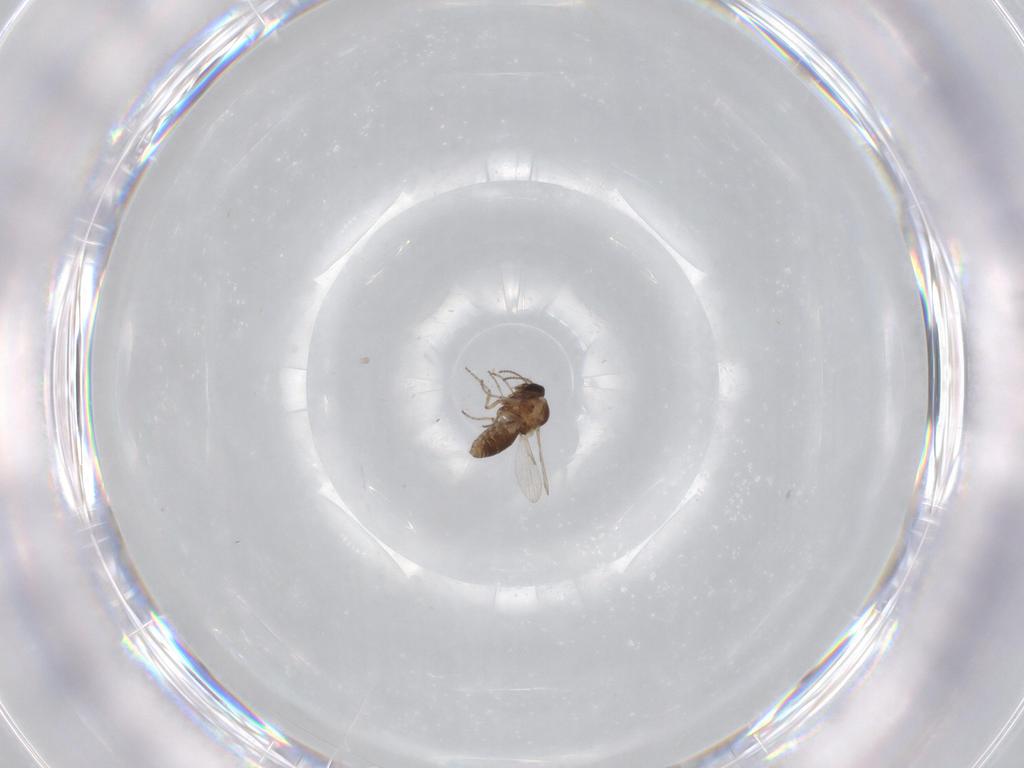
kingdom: Animalia
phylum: Arthropoda
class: Insecta
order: Diptera
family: Ceratopogonidae
